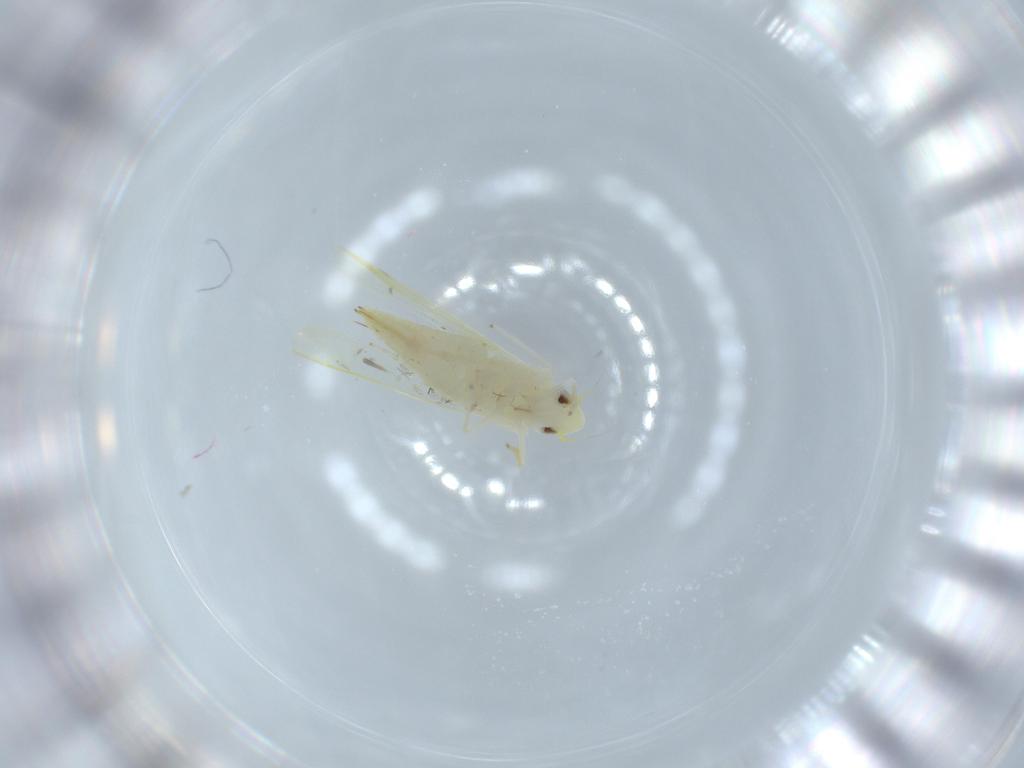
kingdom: Animalia
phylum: Arthropoda
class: Insecta
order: Hemiptera
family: Cicadellidae
